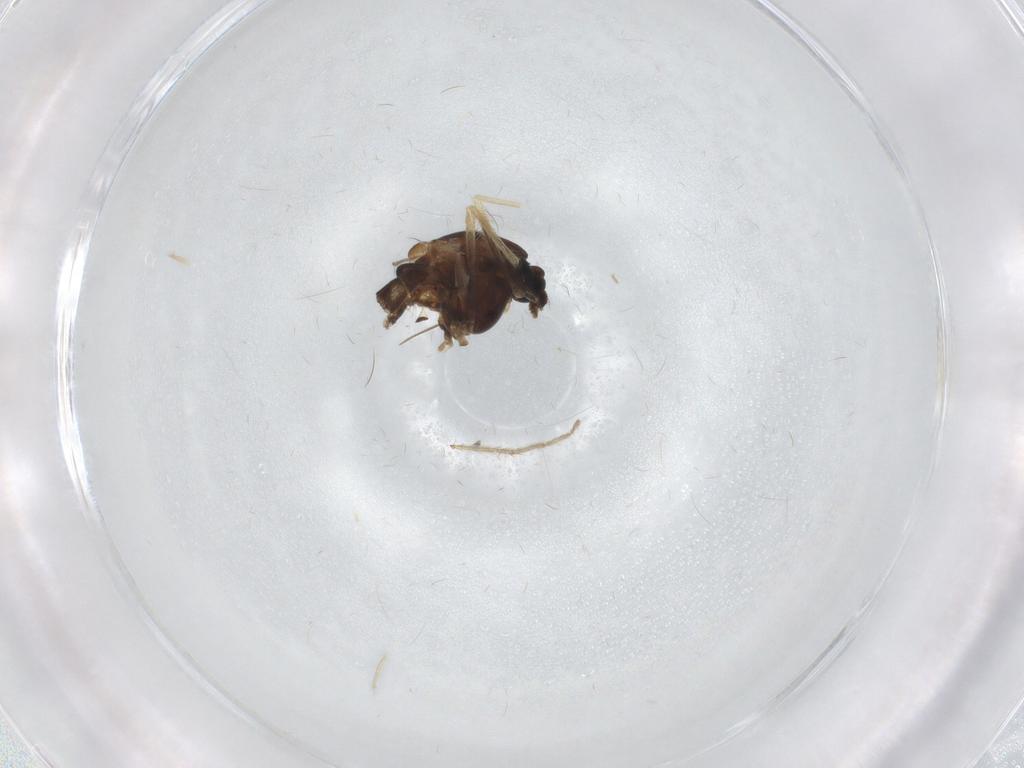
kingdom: Animalia
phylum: Arthropoda
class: Insecta
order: Diptera
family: Chironomidae
